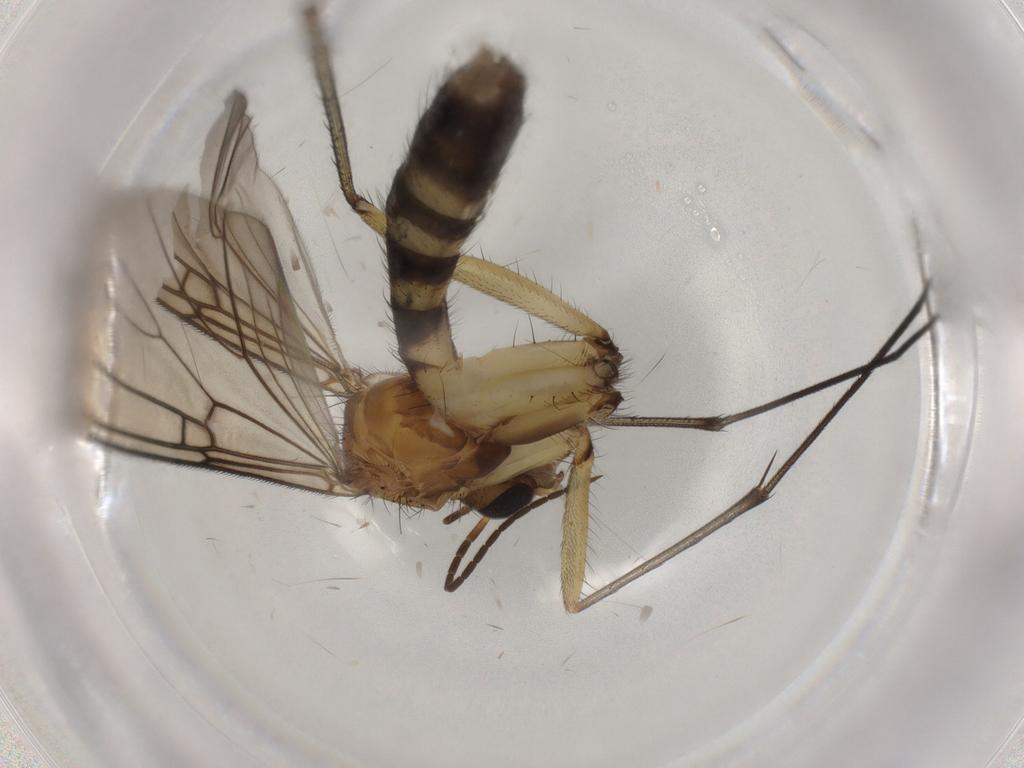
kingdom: Animalia
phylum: Arthropoda
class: Insecta
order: Diptera
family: Mycetophilidae
